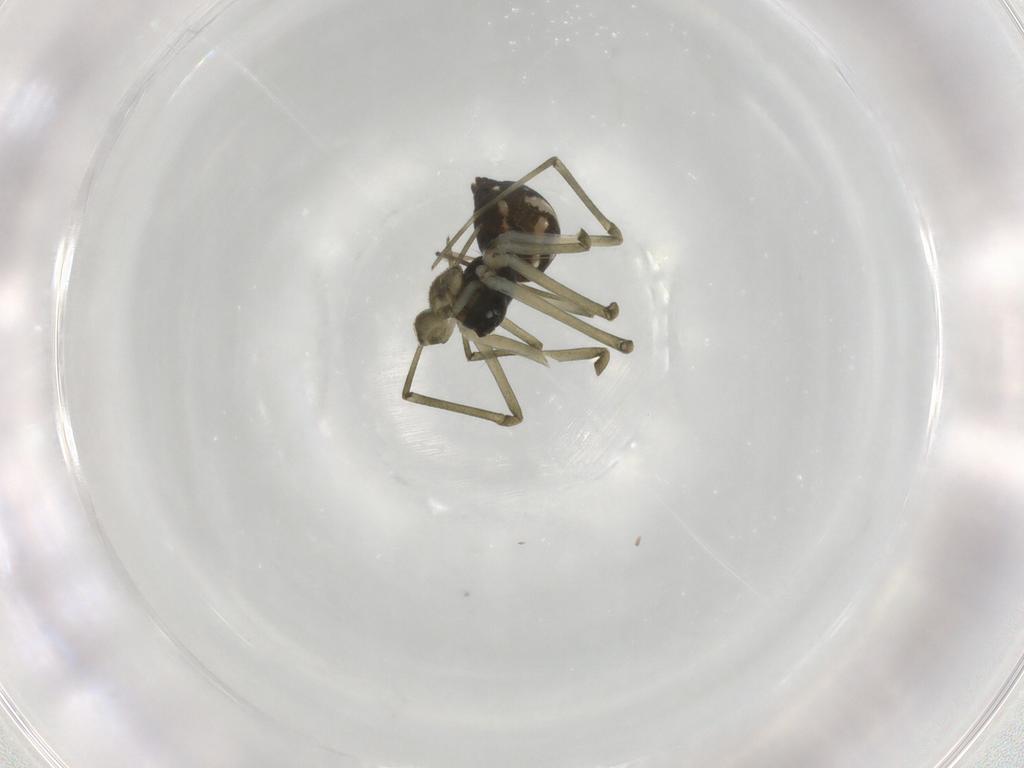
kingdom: Animalia
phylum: Arthropoda
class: Arachnida
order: Araneae
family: Linyphiidae
